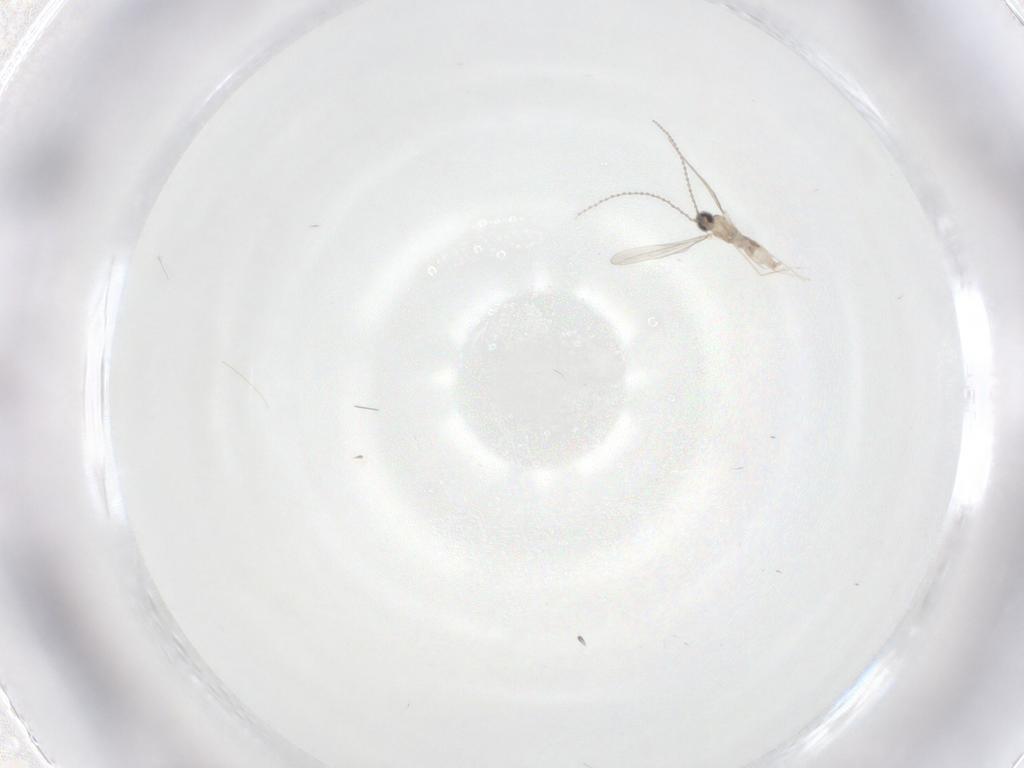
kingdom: Animalia
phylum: Arthropoda
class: Insecta
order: Diptera
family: Cecidomyiidae
